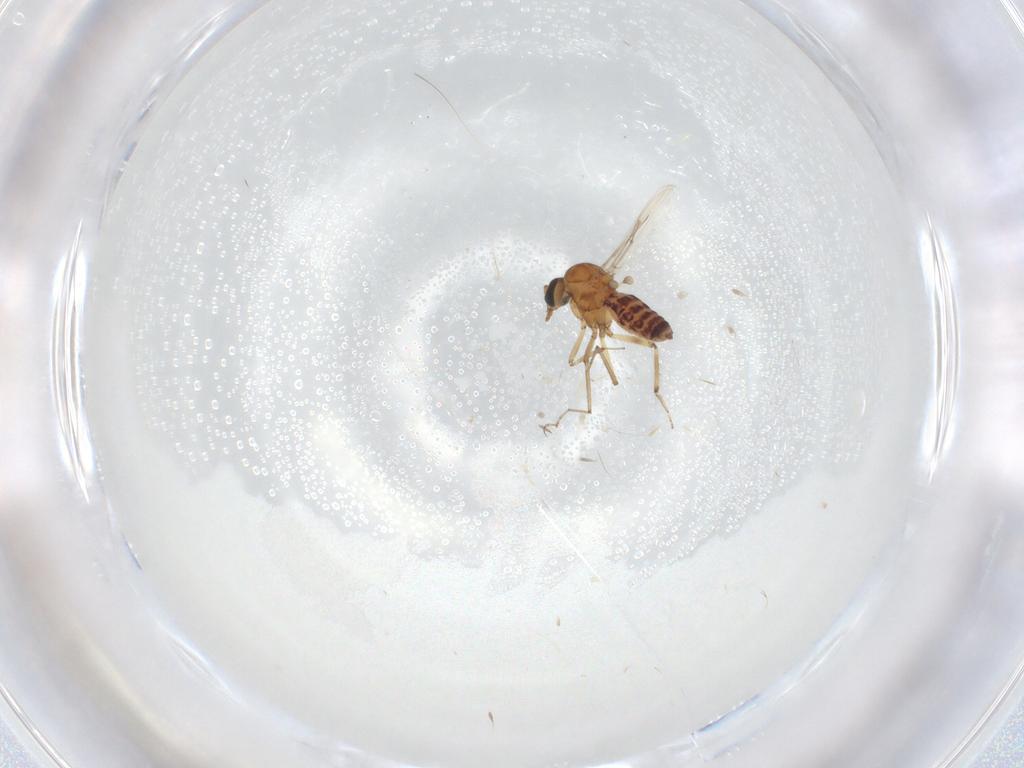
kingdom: Animalia
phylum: Arthropoda
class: Insecta
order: Diptera
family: Ceratopogonidae
